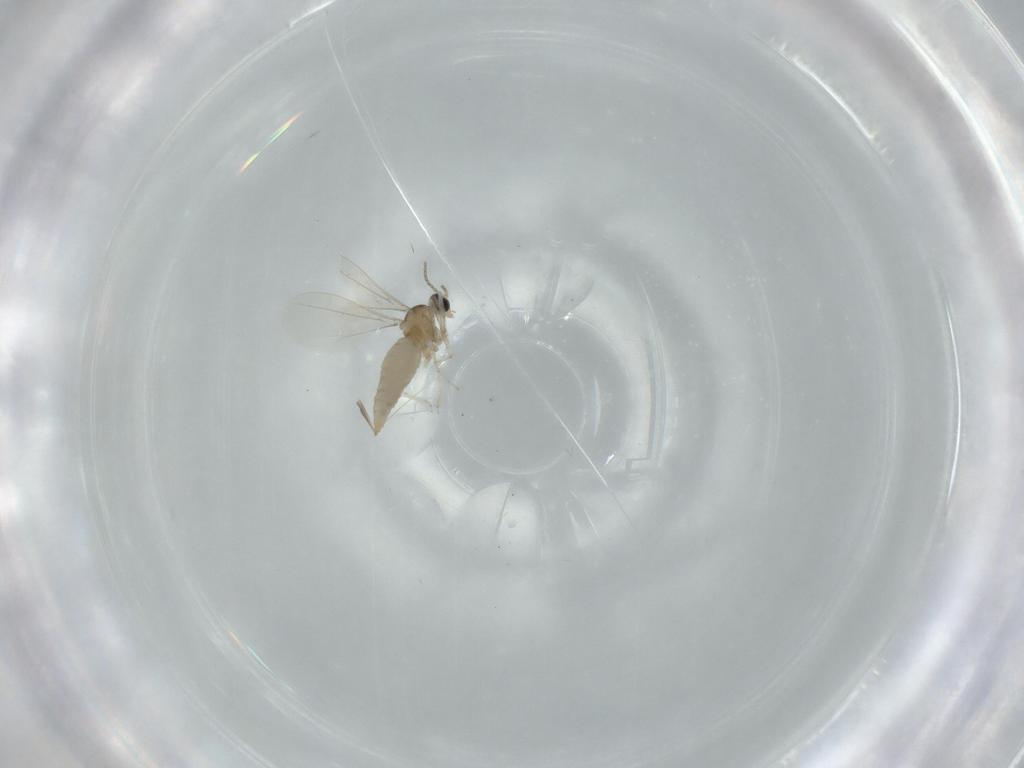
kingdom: Animalia
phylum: Arthropoda
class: Insecta
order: Diptera
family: Cecidomyiidae
